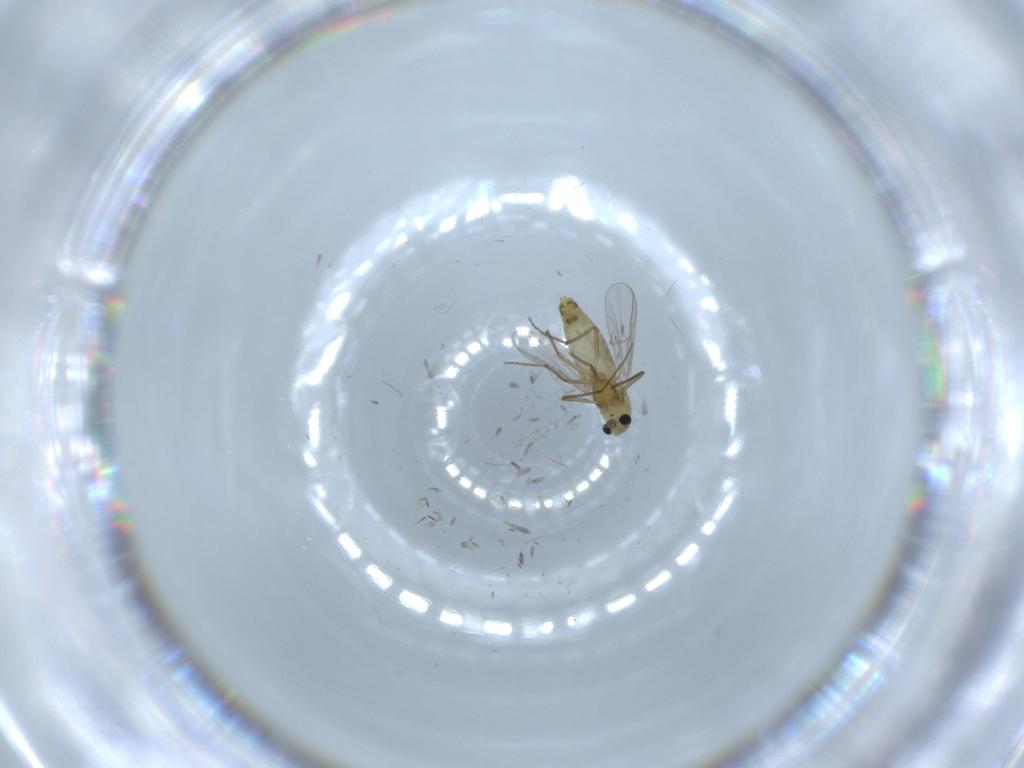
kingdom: Animalia
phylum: Arthropoda
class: Insecta
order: Diptera
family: Chironomidae
